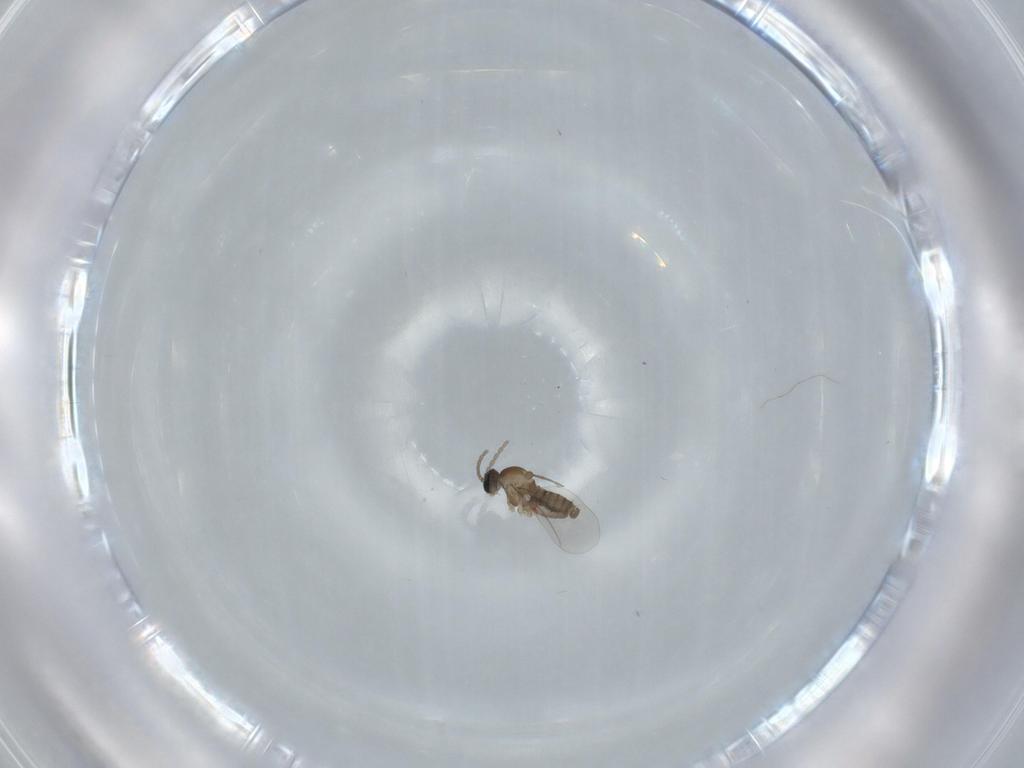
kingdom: Animalia
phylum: Arthropoda
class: Insecta
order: Diptera
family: Cecidomyiidae
